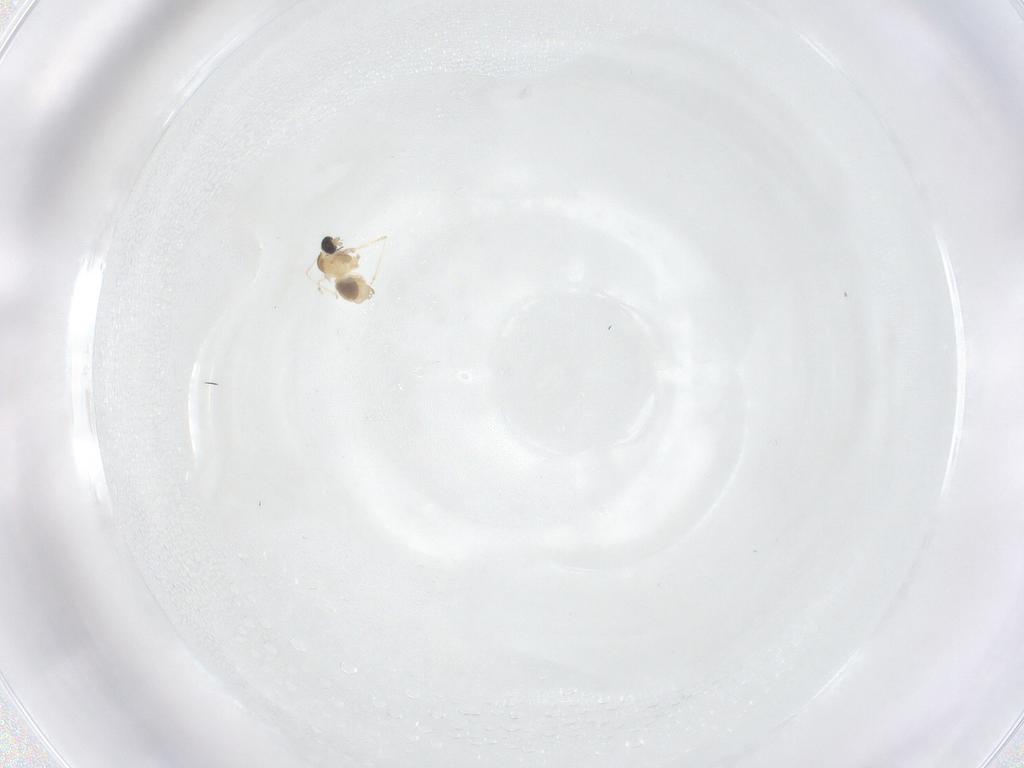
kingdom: Animalia
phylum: Arthropoda
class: Insecta
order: Diptera
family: Cecidomyiidae
